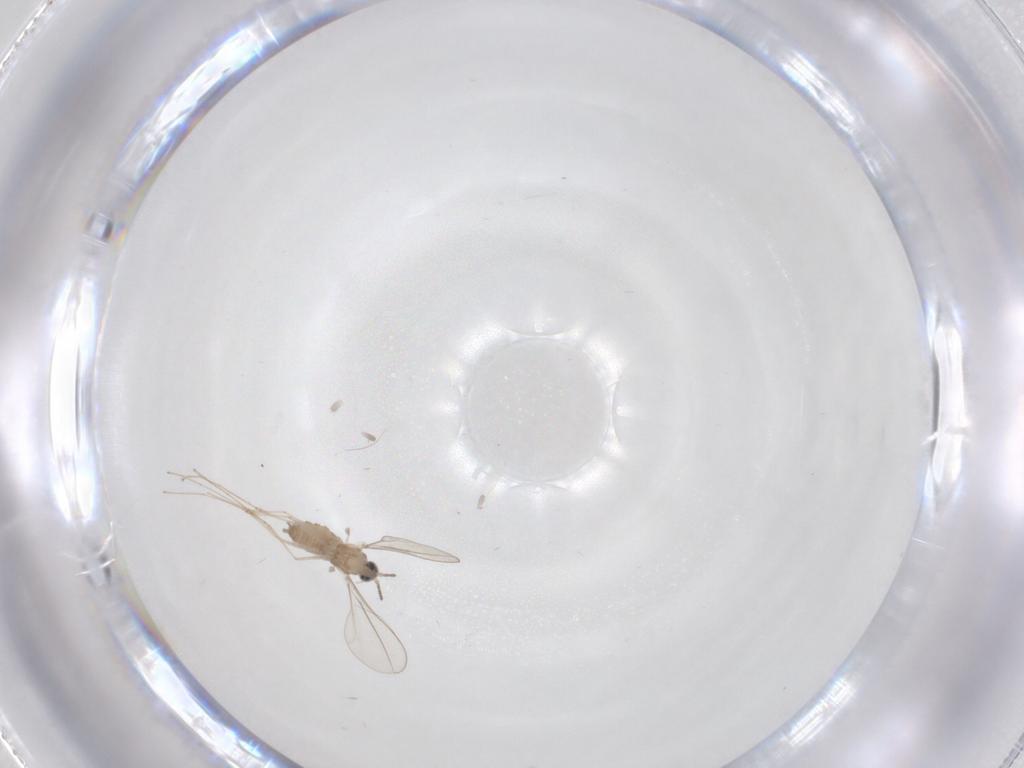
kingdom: Animalia
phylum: Arthropoda
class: Insecta
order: Diptera
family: Cecidomyiidae
